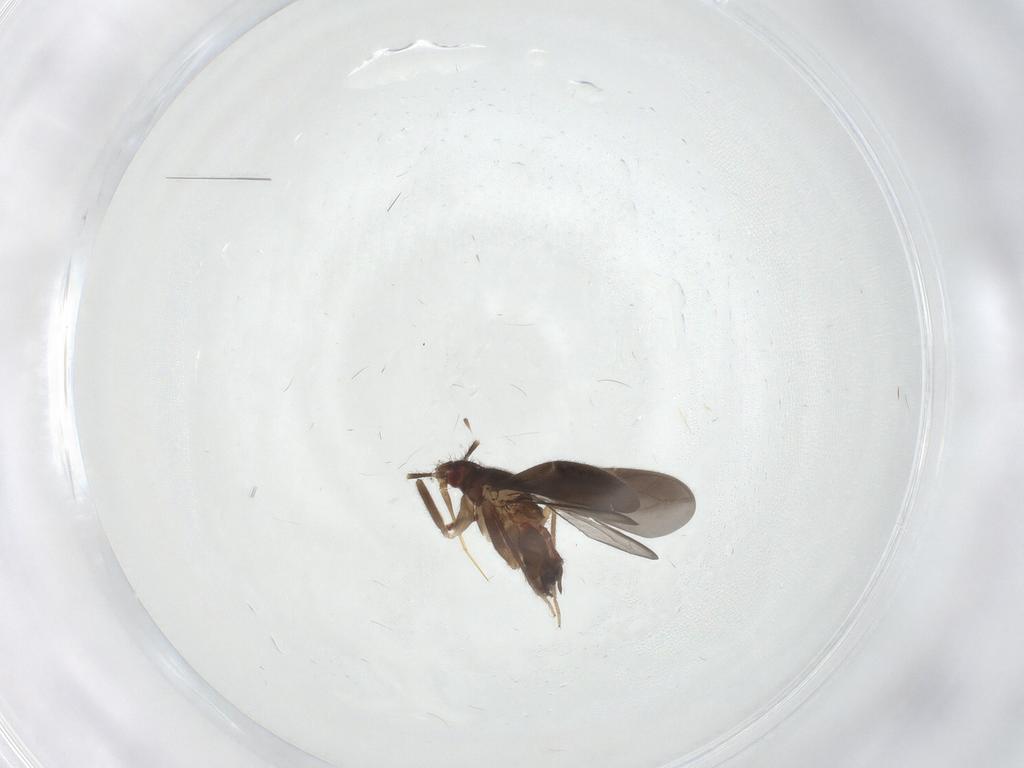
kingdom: Animalia
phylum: Arthropoda
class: Insecta
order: Hemiptera
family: Ceratocombidae
